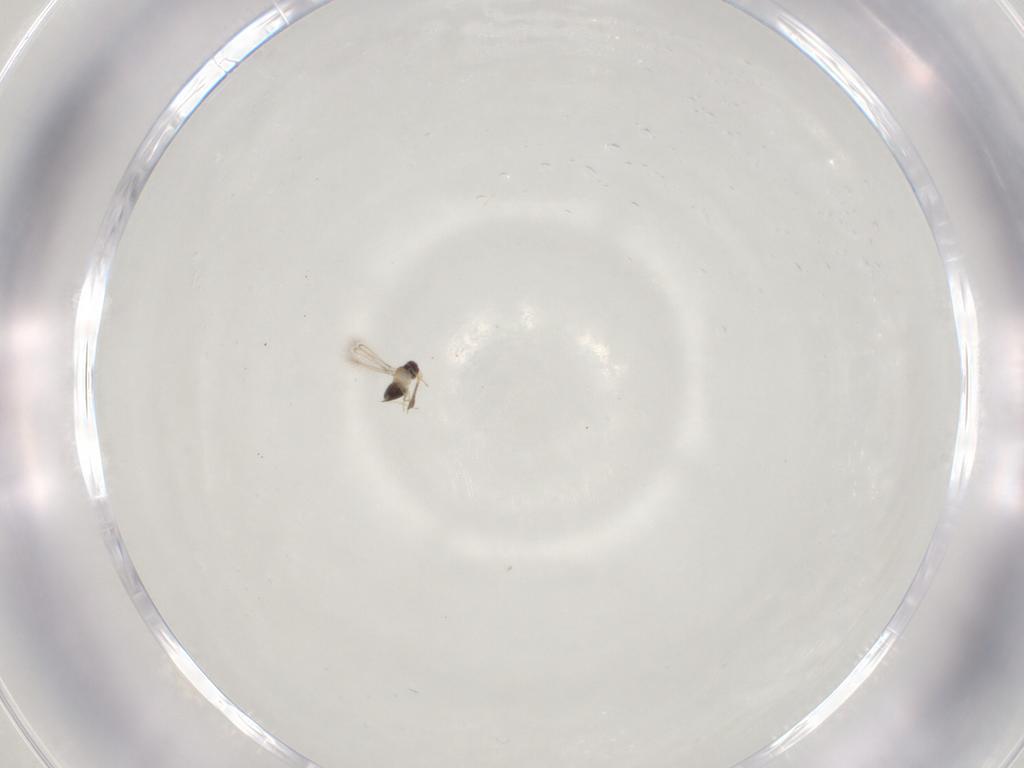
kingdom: Animalia
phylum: Arthropoda
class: Insecta
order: Hymenoptera
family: Mymaridae
